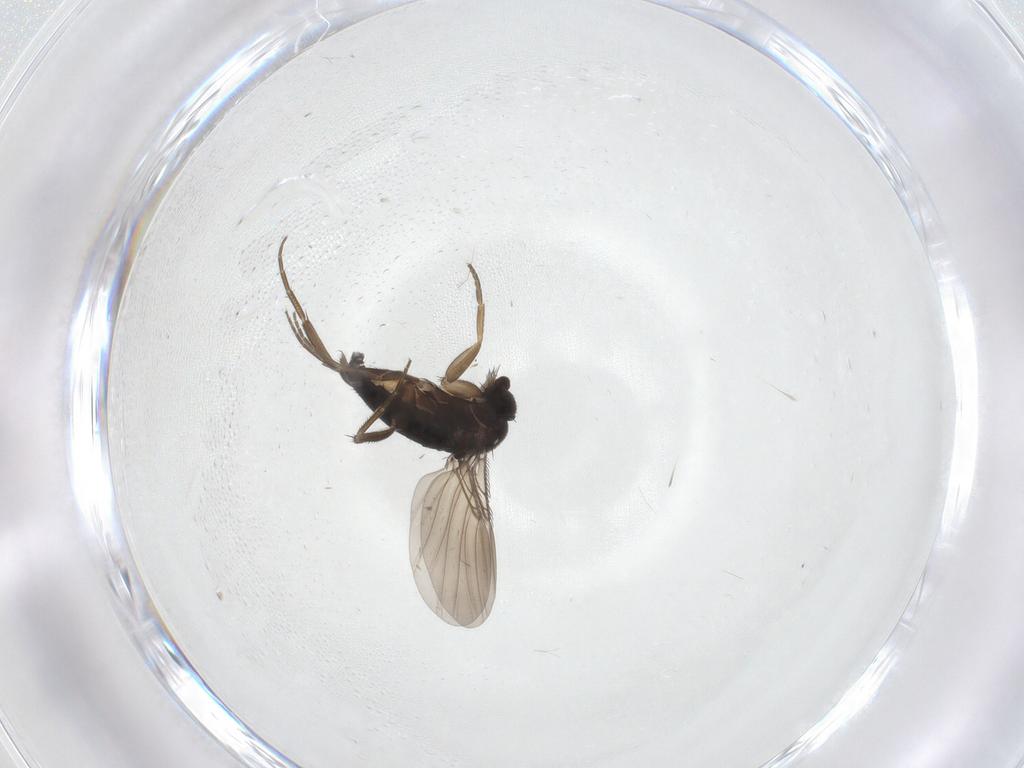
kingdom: Animalia
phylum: Arthropoda
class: Insecta
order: Diptera
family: Phoridae
